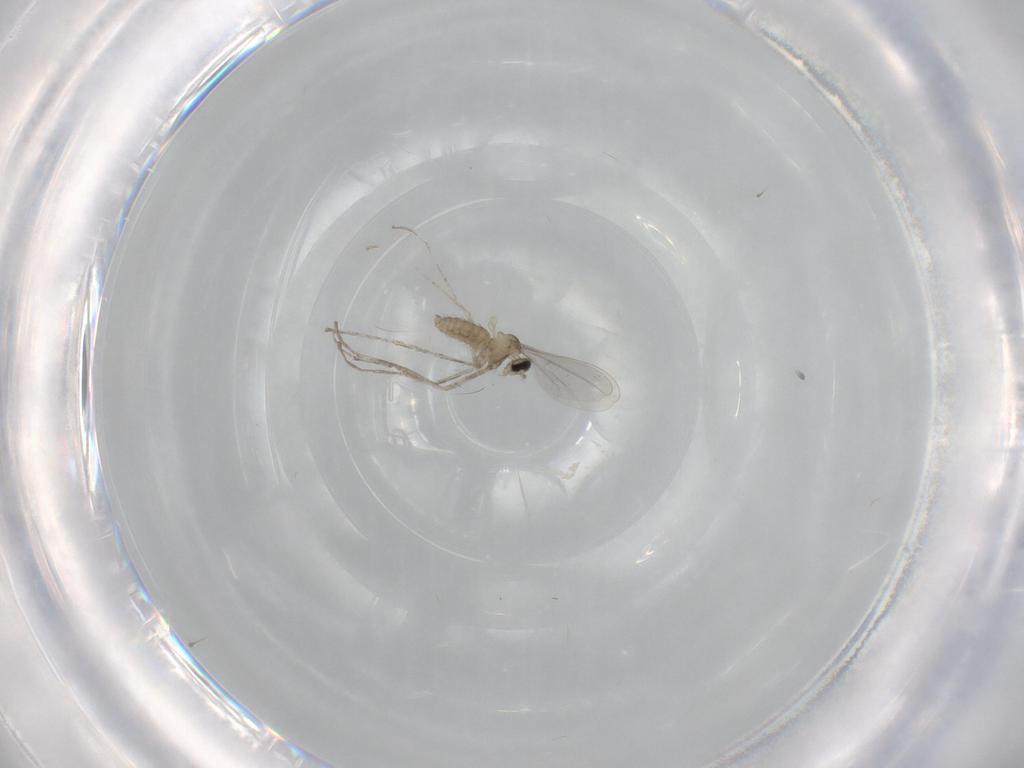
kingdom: Animalia
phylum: Arthropoda
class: Insecta
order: Diptera
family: Cecidomyiidae
